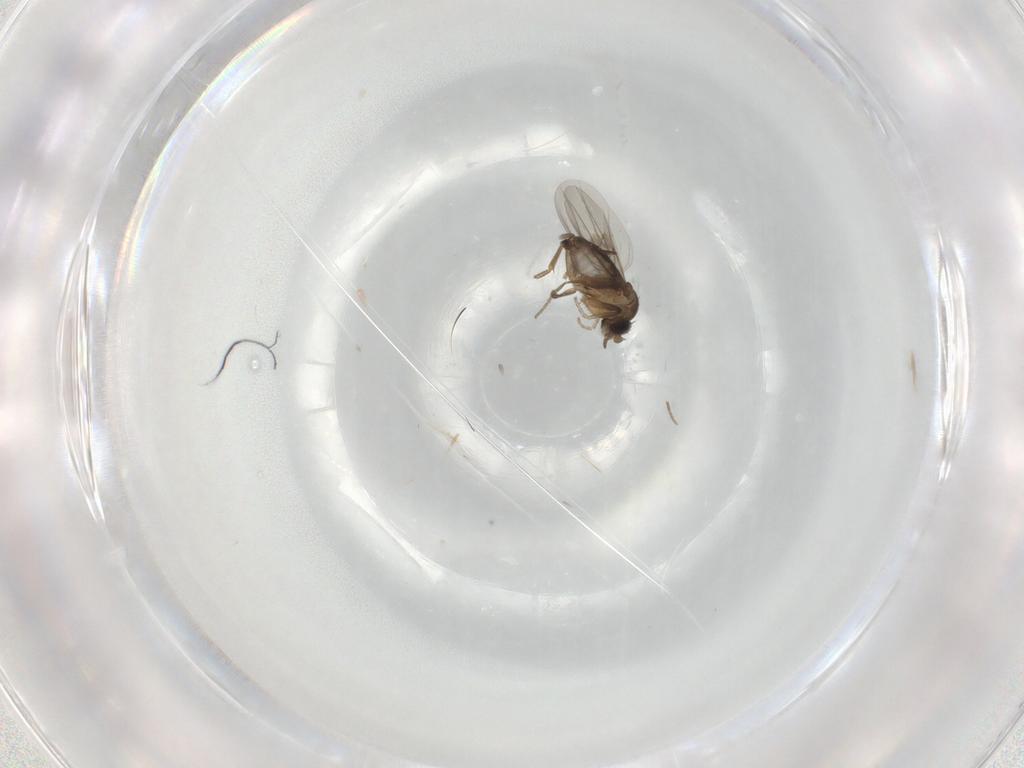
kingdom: Animalia
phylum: Arthropoda
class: Insecta
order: Diptera
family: Phoridae
